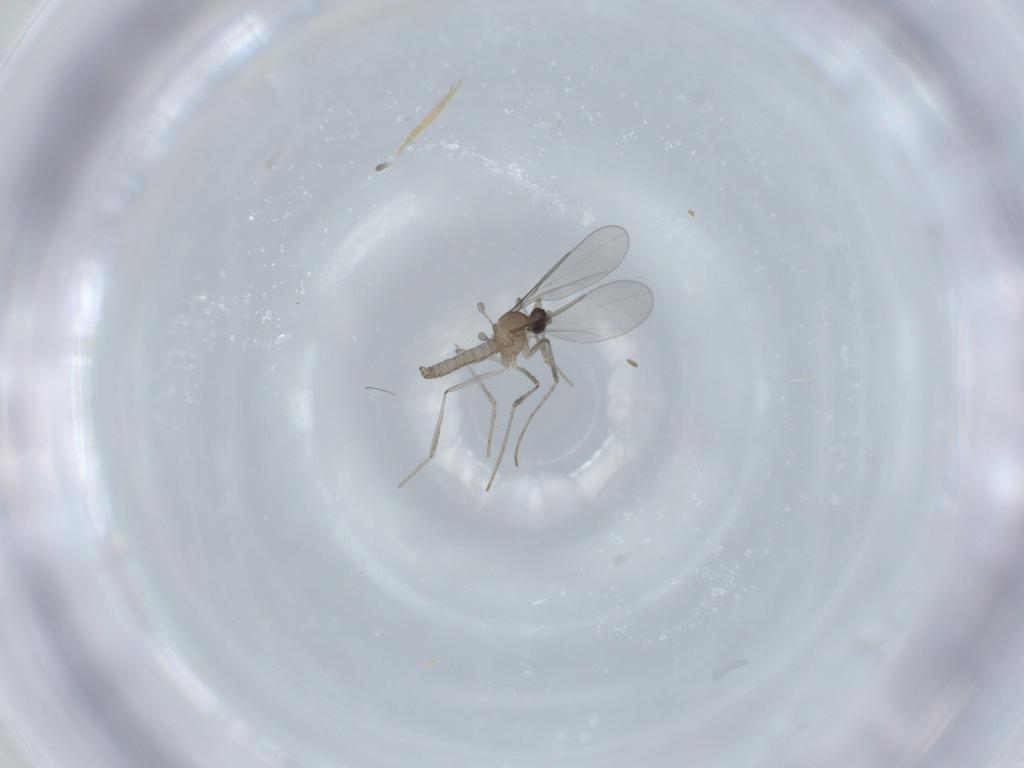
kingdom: Animalia
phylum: Arthropoda
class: Insecta
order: Diptera
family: Cecidomyiidae
